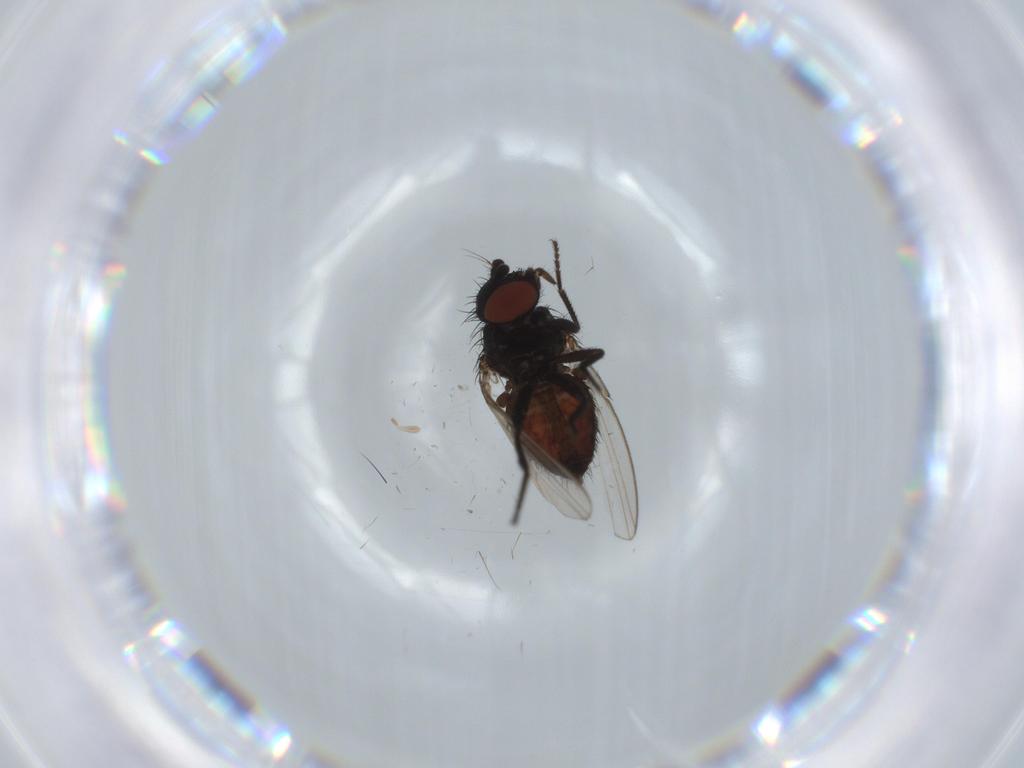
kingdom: Animalia
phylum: Arthropoda
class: Insecta
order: Diptera
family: Milichiidae
